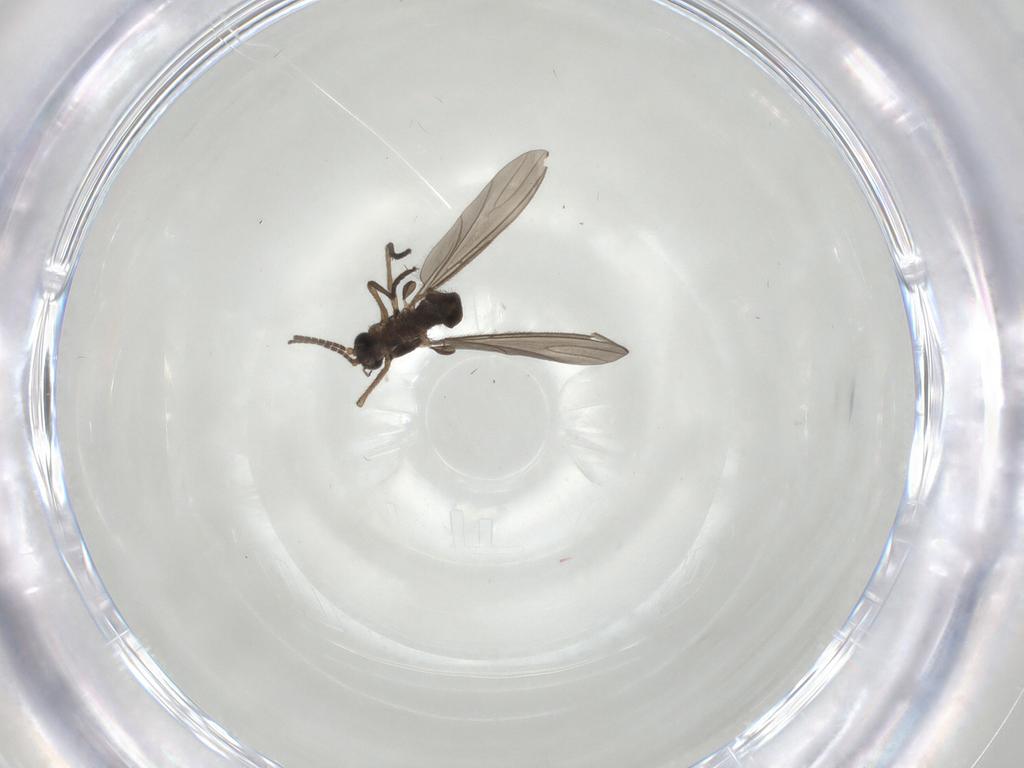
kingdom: Animalia
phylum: Arthropoda
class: Insecta
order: Diptera
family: Sciaridae
